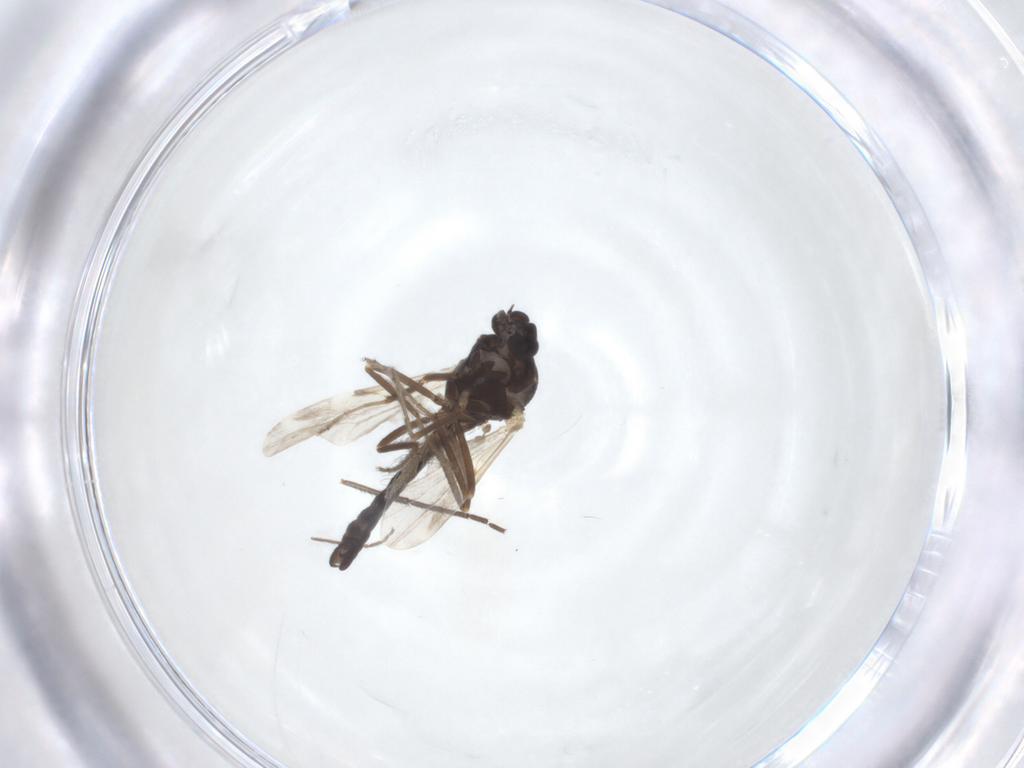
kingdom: Animalia
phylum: Arthropoda
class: Insecta
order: Diptera
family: Ceratopogonidae
